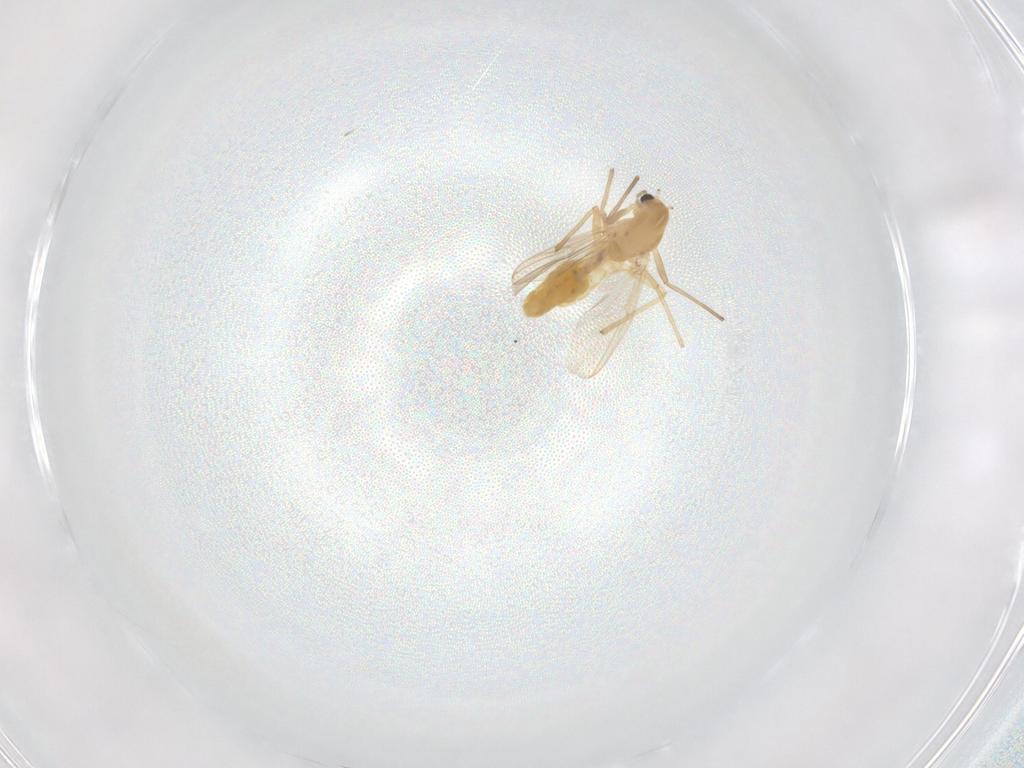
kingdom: Animalia
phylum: Arthropoda
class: Insecta
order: Diptera
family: Chironomidae
